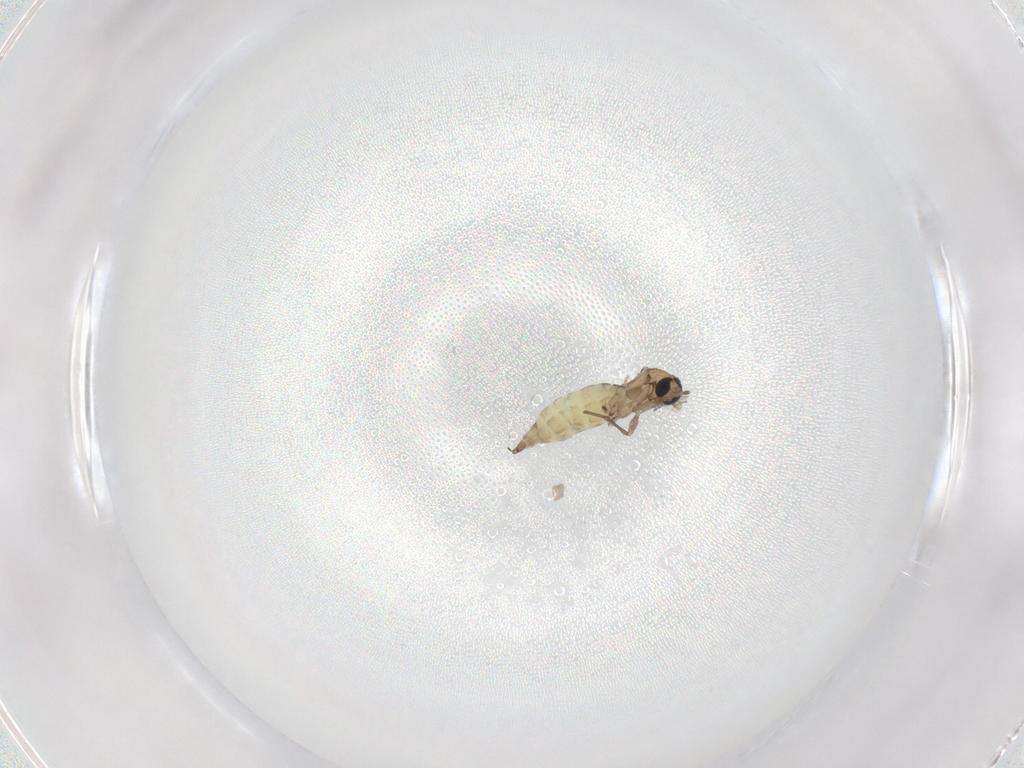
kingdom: Animalia
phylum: Arthropoda
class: Insecta
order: Diptera
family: Sciaridae
